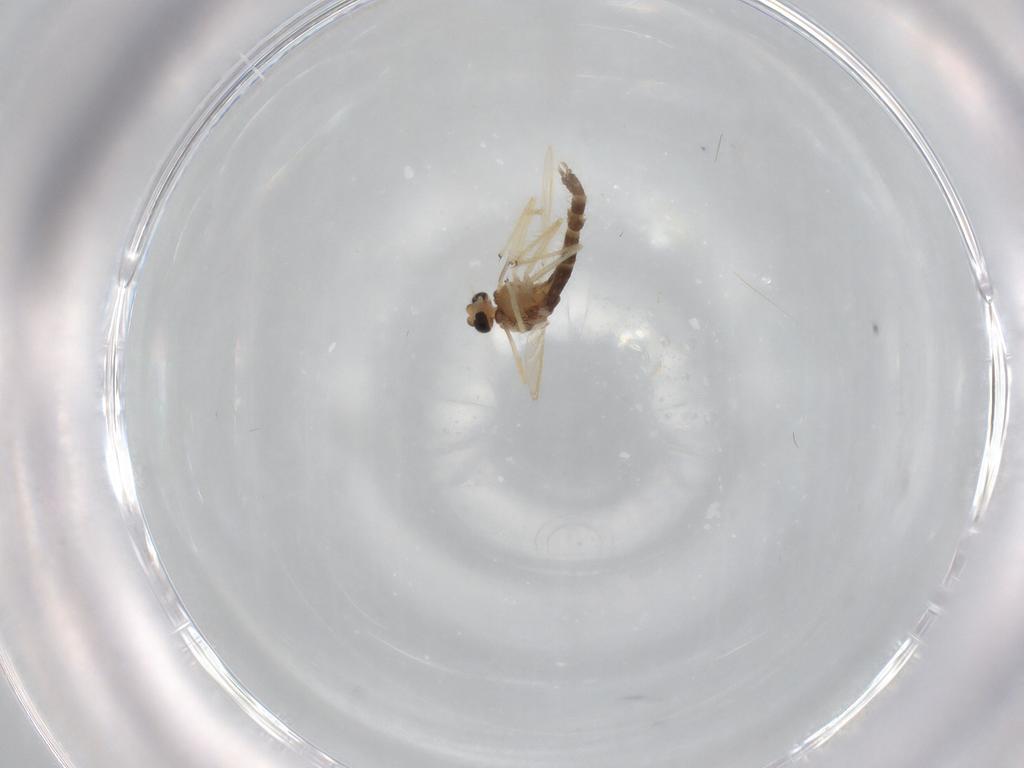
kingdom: Animalia
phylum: Arthropoda
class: Insecta
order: Diptera
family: Chironomidae
